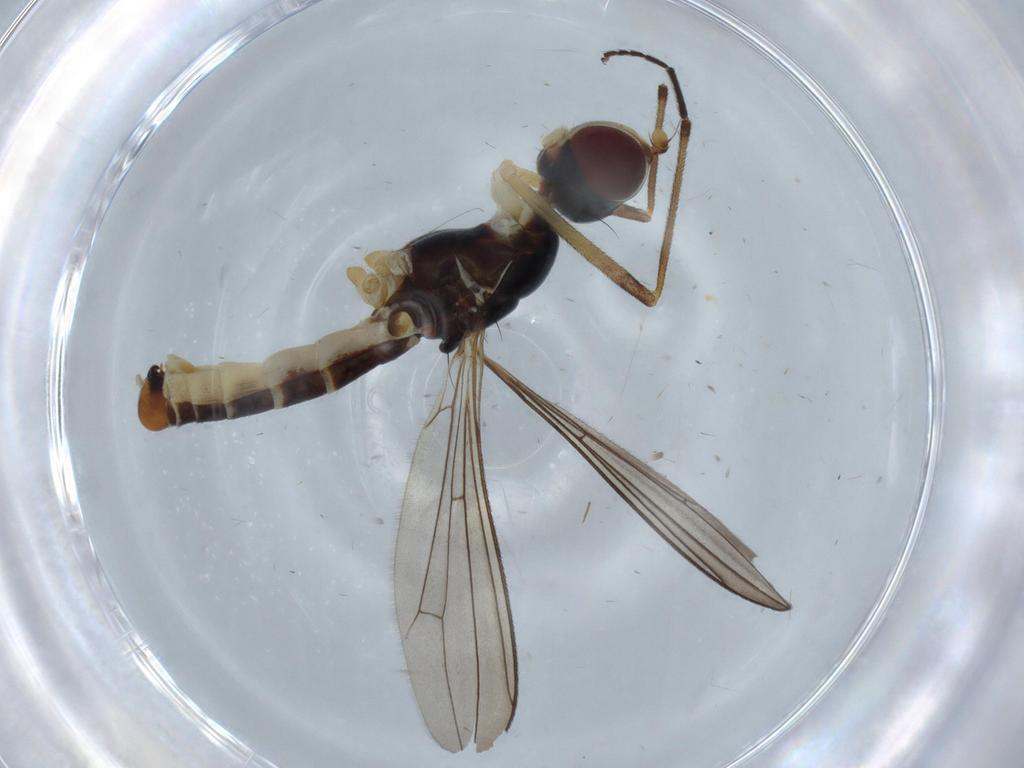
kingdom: Animalia
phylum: Arthropoda
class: Insecta
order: Diptera
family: Micropezidae
